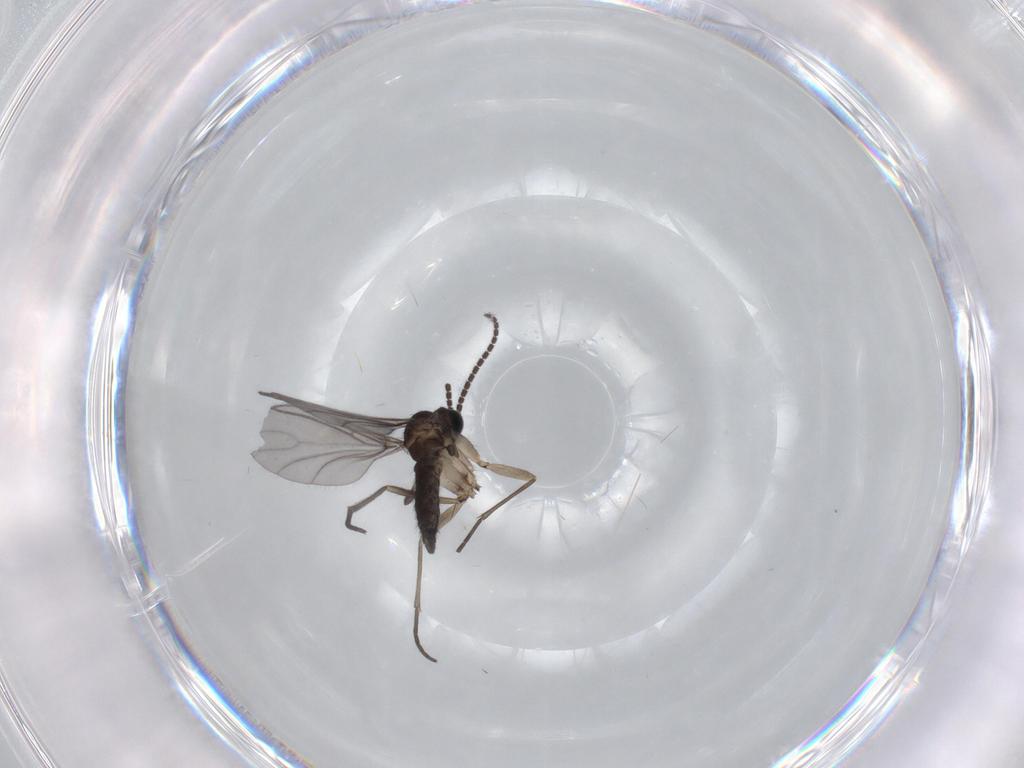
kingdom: Animalia
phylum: Arthropoda
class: Insecta
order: Diptera
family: Sciaridae
